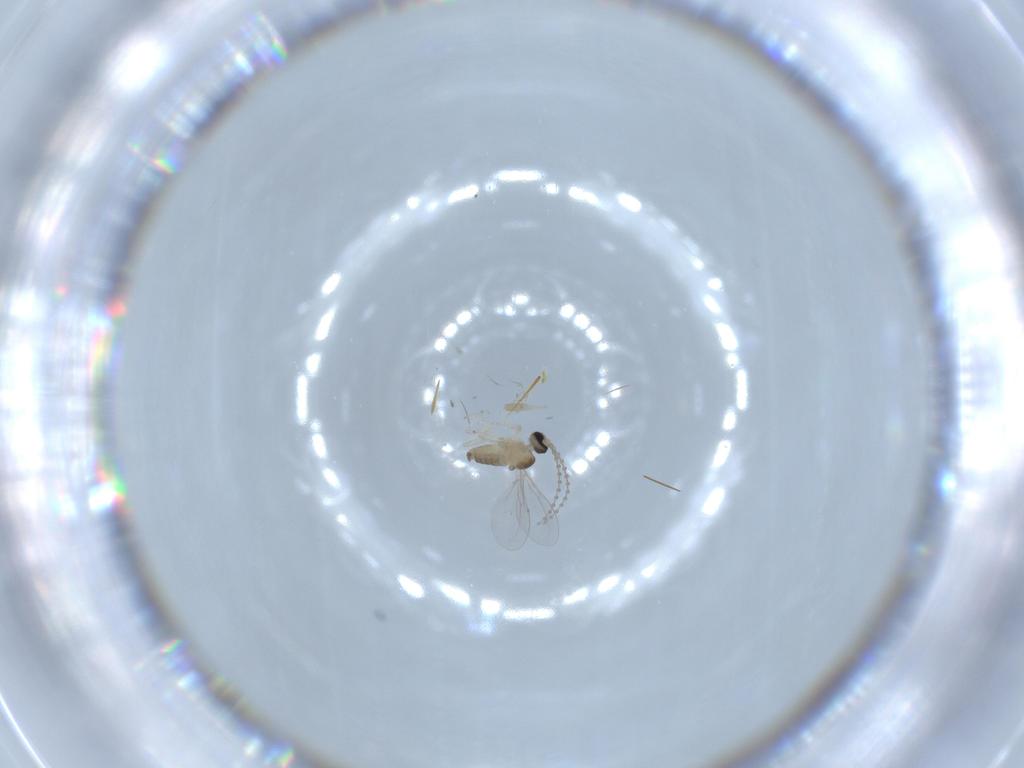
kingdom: Animalia
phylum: Arthropoda
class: Insecta
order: Diptera
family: Cecidomyiidae
